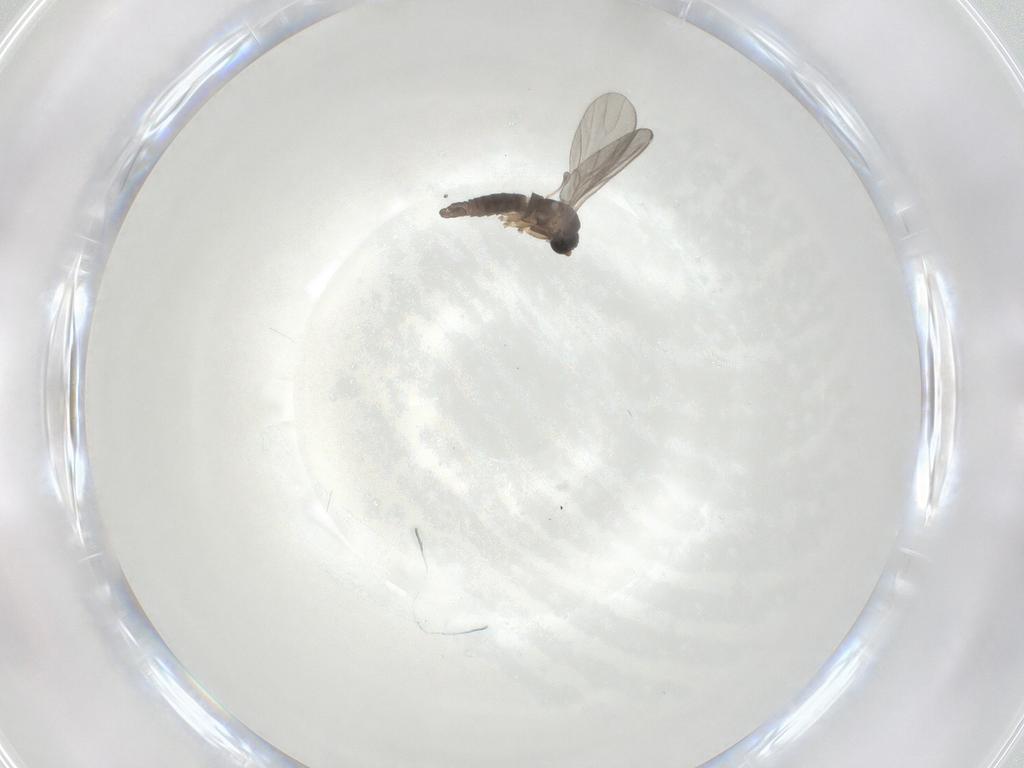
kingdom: Animalia
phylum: Arthropoda
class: Insecta
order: Diptera
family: Sciaridae
